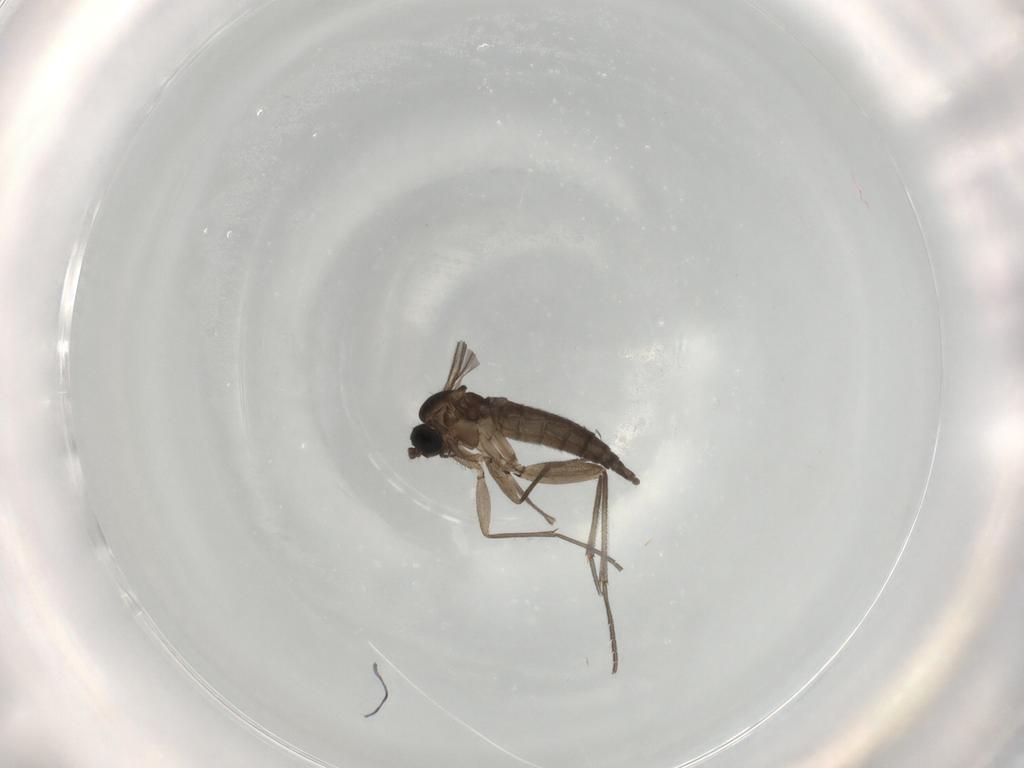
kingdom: Animalia
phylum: Arthropoda
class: Insecta
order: Diptera
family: Sciaridae
